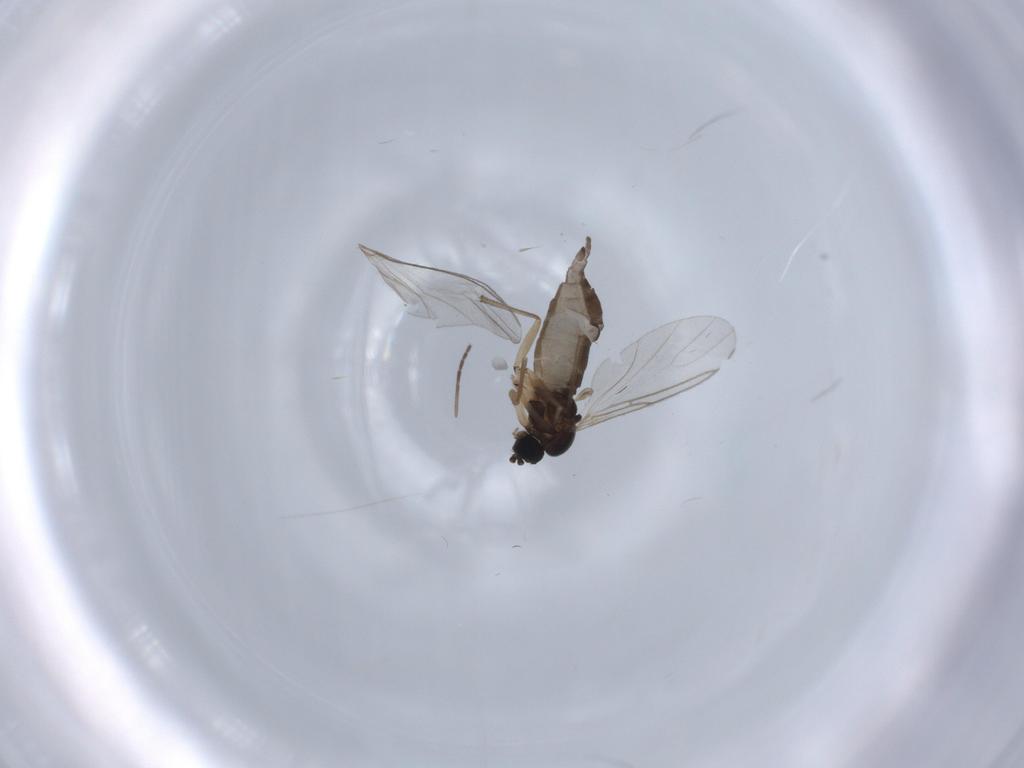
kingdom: Animalia
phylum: Arthropoda
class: Insecta
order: Diptera
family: Sciaridae
